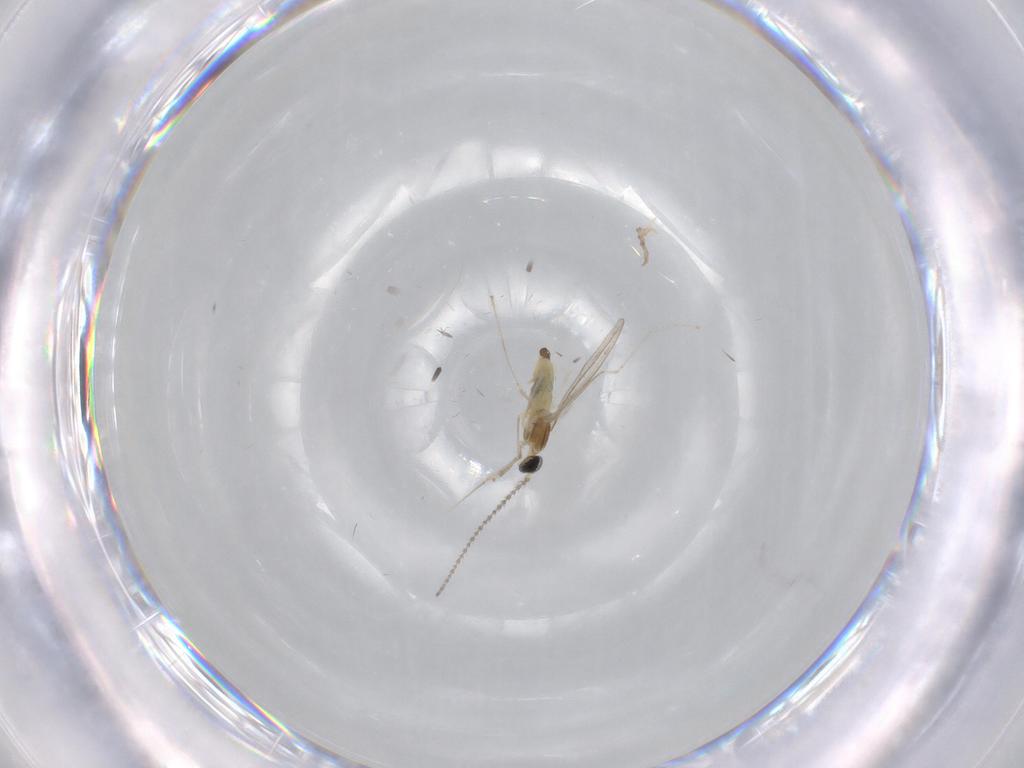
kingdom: Animalia
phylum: Arthropoda
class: Insecta
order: Diptera
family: Cecidomyiidae
